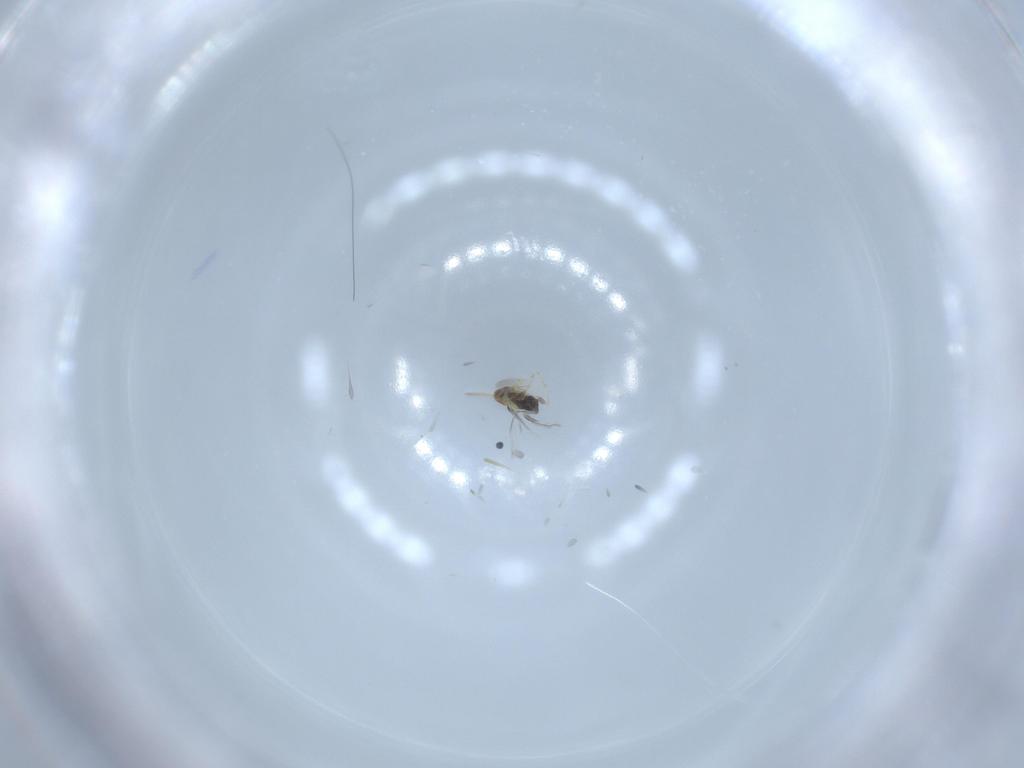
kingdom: Animalia
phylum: Arthropoda
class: Insecta
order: Hymenoptera
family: Aphelinidae
